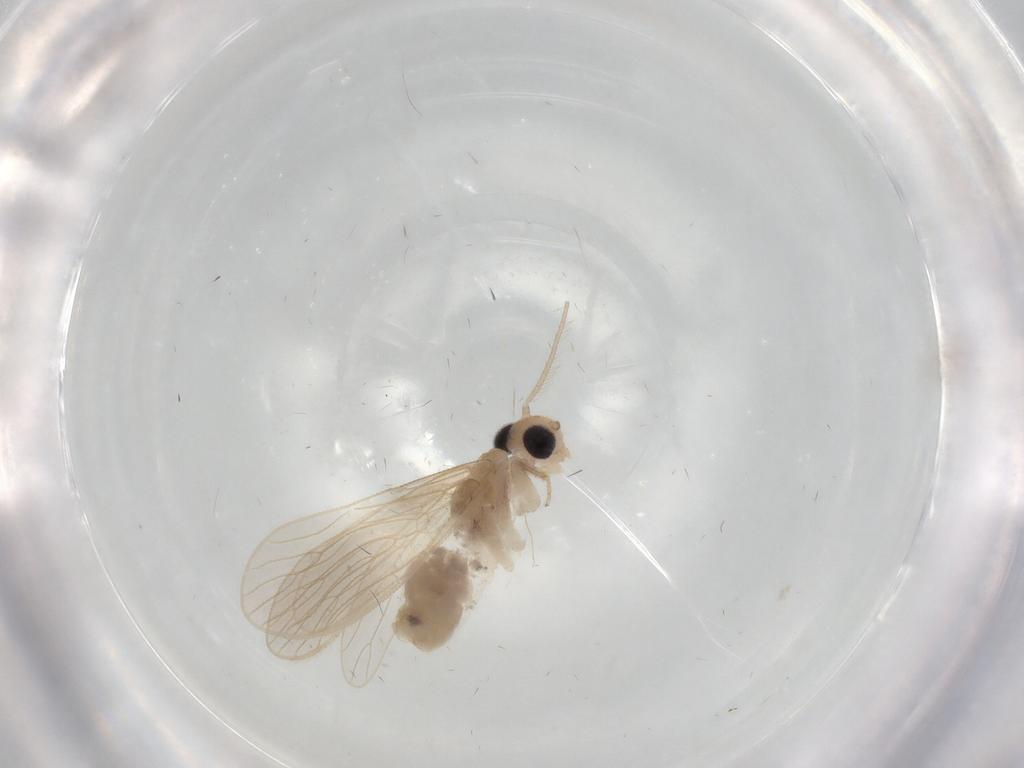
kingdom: Animalia
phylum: Arthropoda
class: Insecta
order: Psocodea
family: Cladiopsocidae
